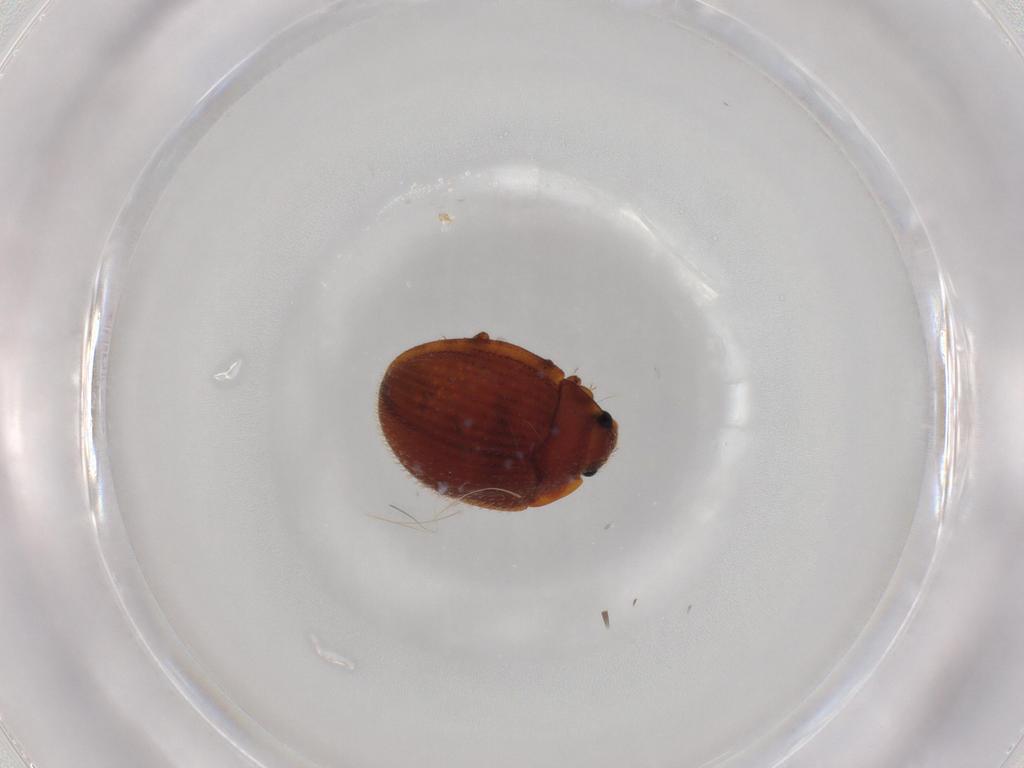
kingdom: Animalia
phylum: Arthropoda
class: Insecta
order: Coleoptera
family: Euxestidae
